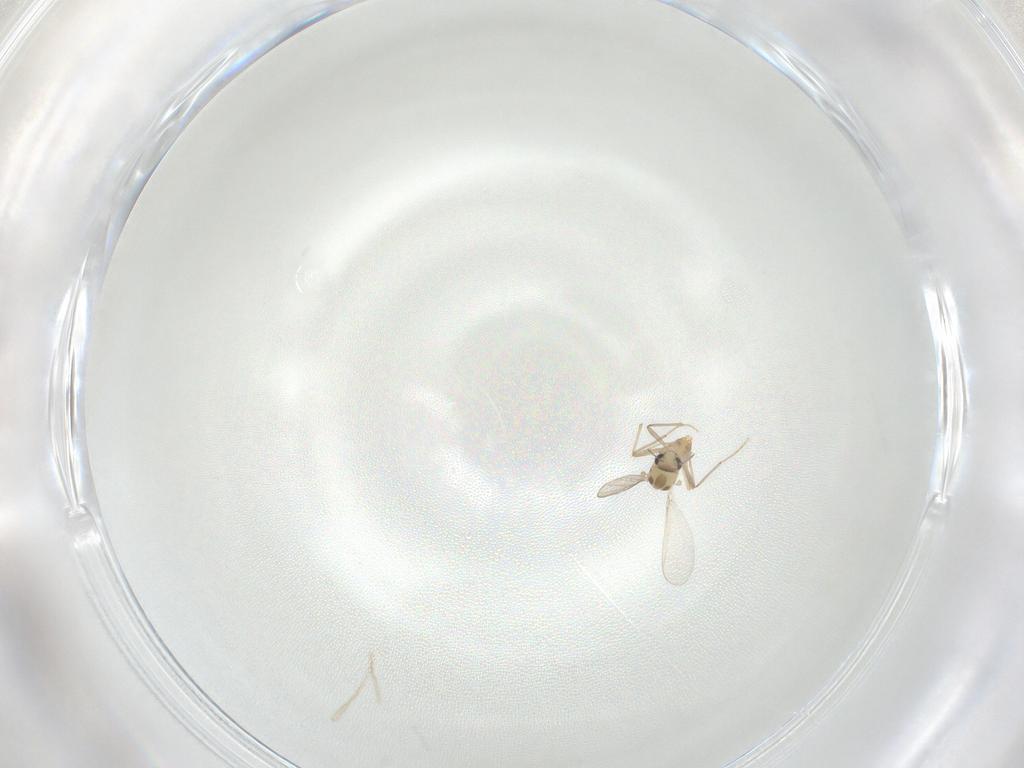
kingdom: Animalia
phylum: Arthropoda
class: Insecta
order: Diptera
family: Chironomidae
